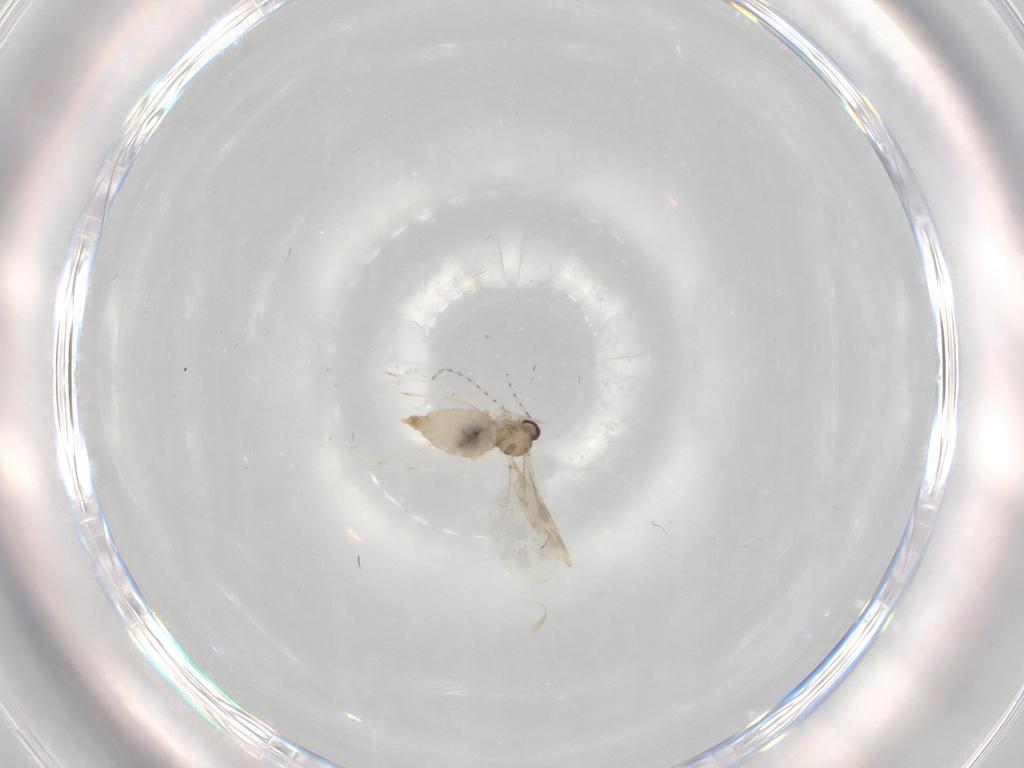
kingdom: Animalia
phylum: Arthropoda
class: Insecta
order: Diptera
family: Cecidomyiidae
